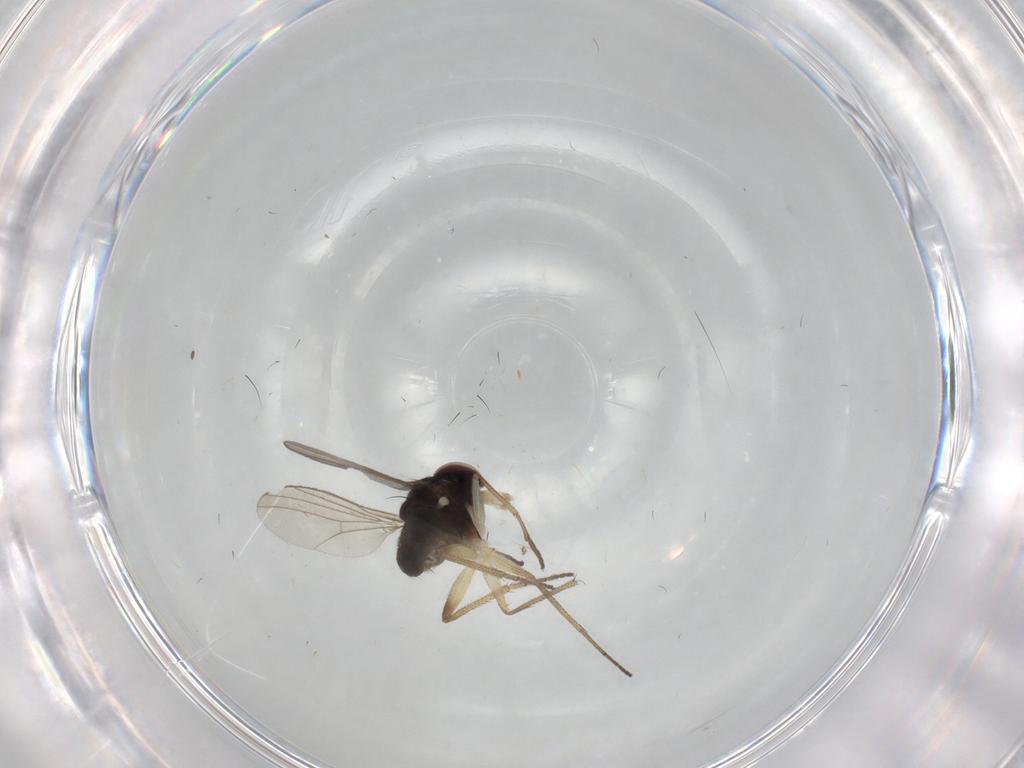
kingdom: Animalia
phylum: Arthropoda
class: Insecta
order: Diptera
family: Dolichopodidae
